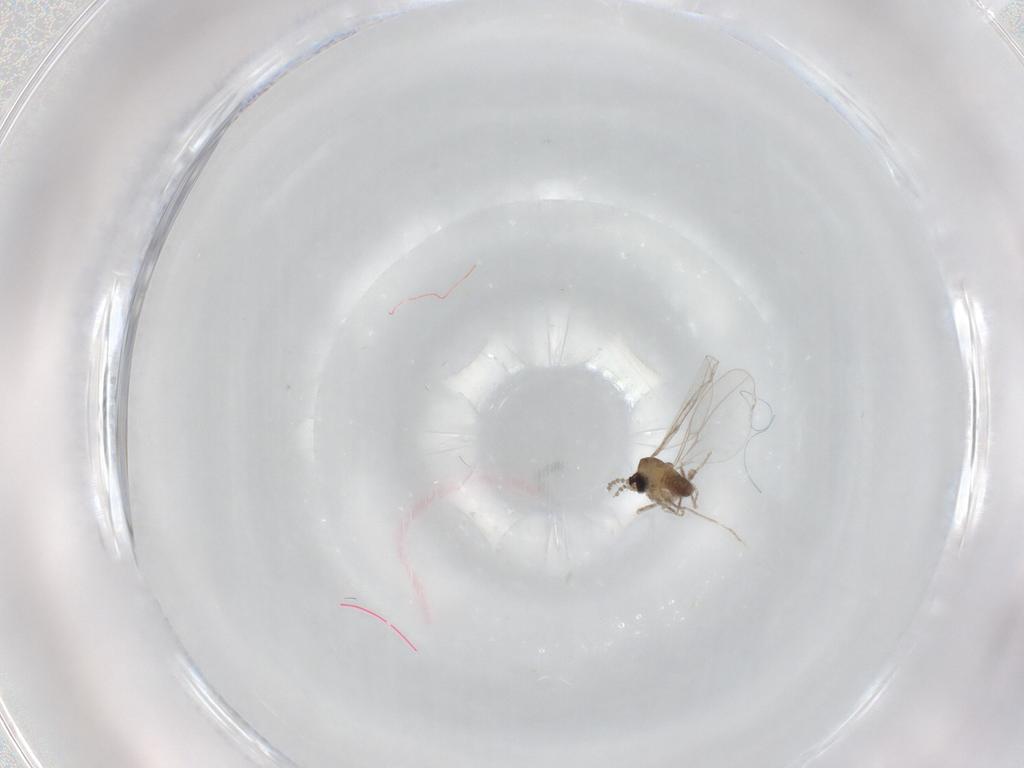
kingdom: Animalia
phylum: Arthropoda
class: Insecta
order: Diptera
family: Cecidomyiidae
